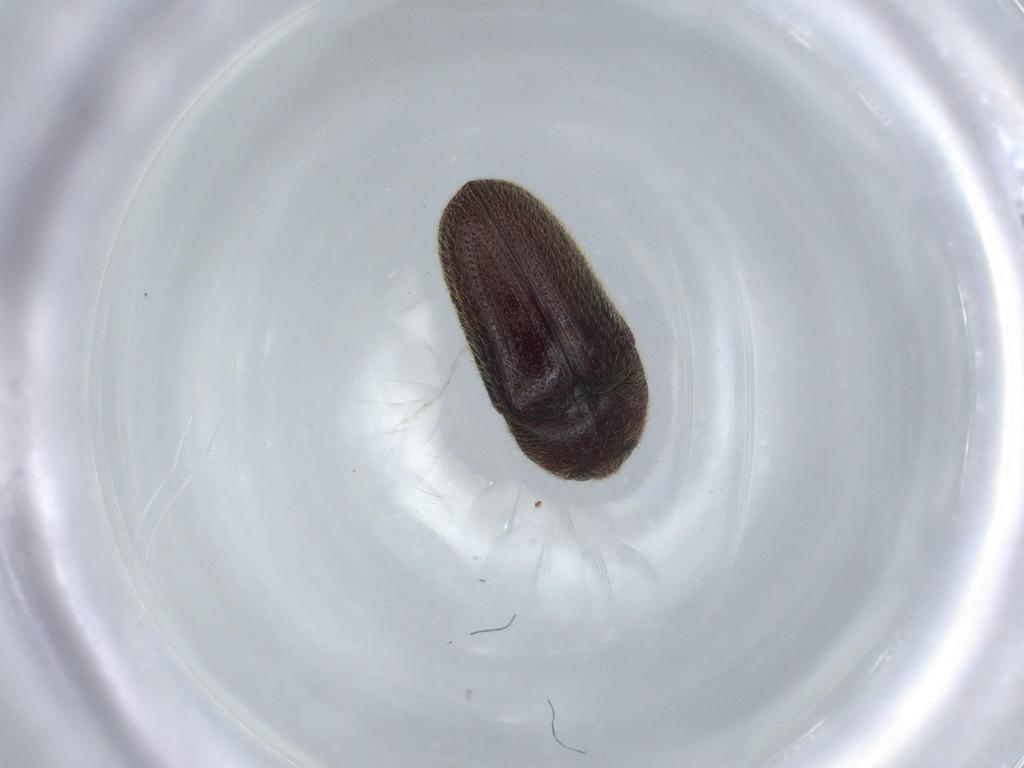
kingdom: Animalia
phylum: Arthropoda
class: Insecta
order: Coleoptera
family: Throscidae
